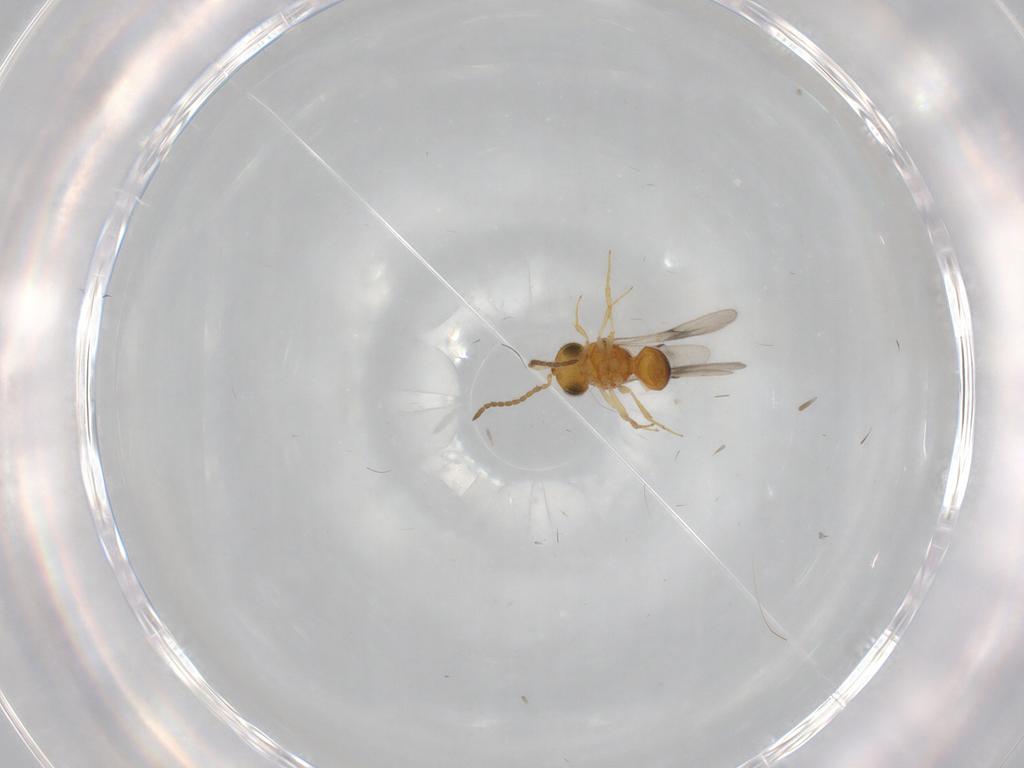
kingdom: Animalia
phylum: Arthropoda
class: Insecta
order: Hymenoptera
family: Scelionidae
